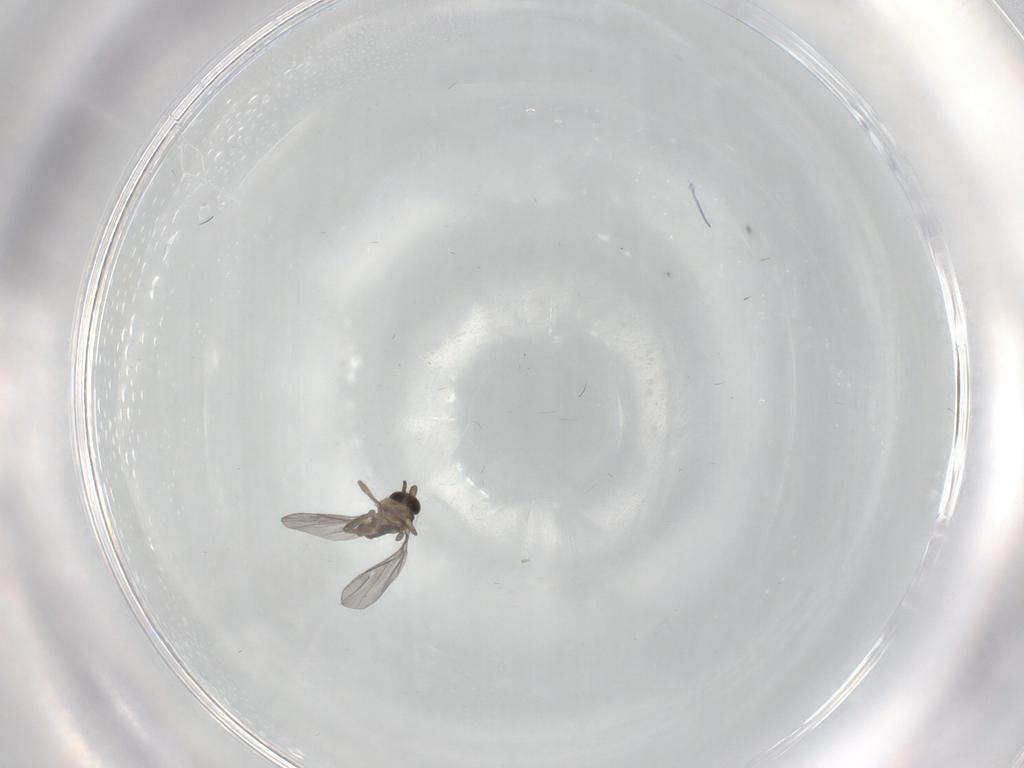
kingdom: Animalia
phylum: Arthropoda
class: Insecta
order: Diptera
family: Cecidomyiidae
